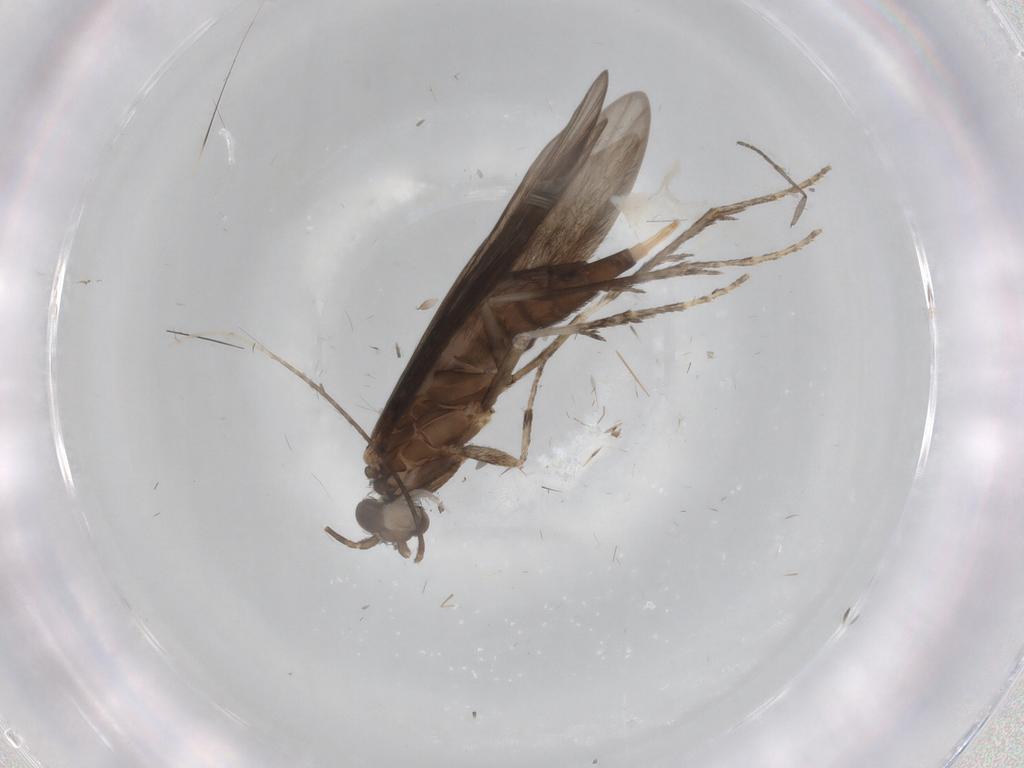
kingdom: Animalia
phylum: Arthropoda
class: Insecta
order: Trichoptera
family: Xiphocentronidae
